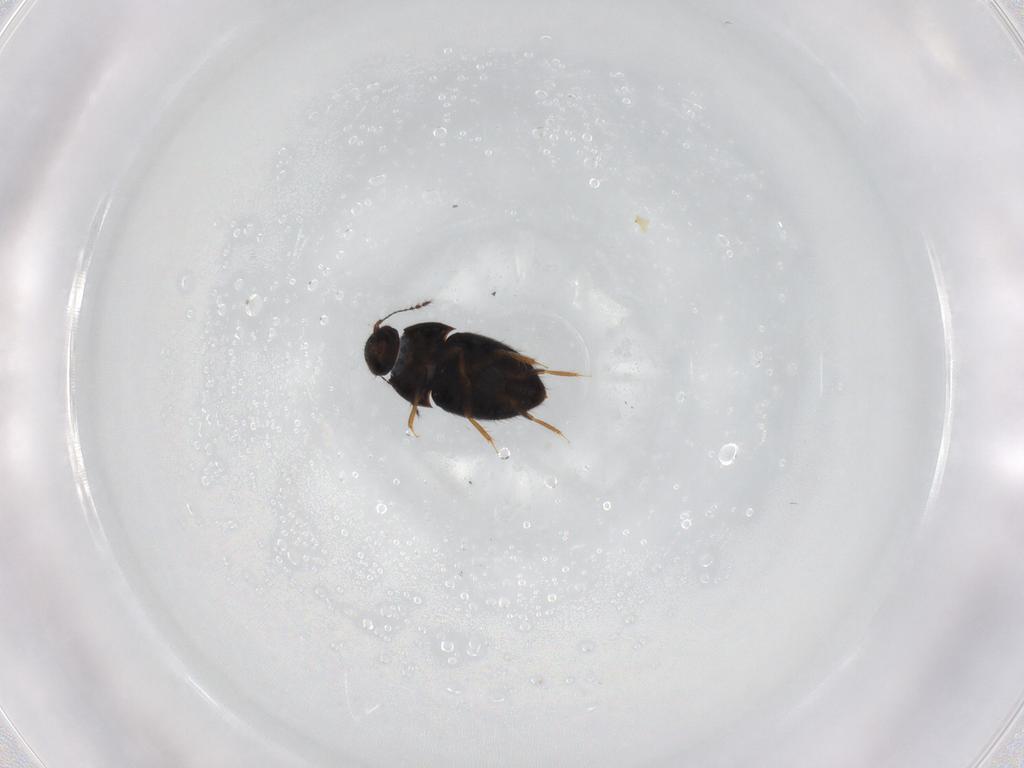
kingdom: Animalia
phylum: Arthropoda
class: Insecta
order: Coleoptera
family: Ptiliidae
